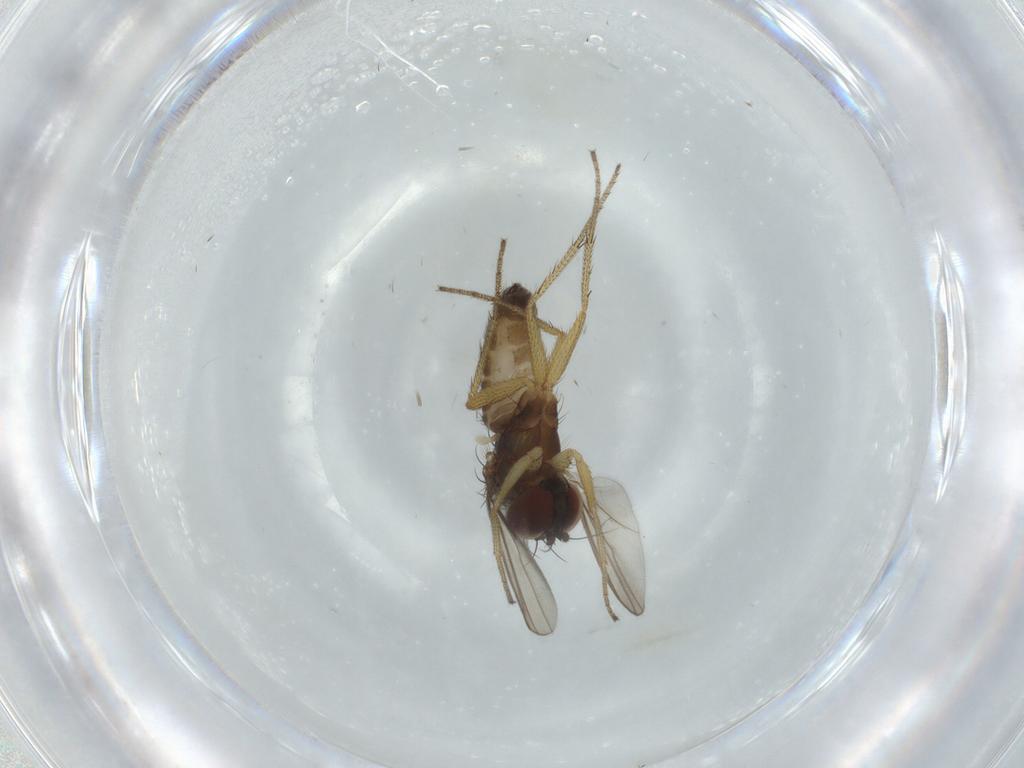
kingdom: Animalia
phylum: Arthropoda
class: Insecta
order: Diptera
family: Dolichopodidae
